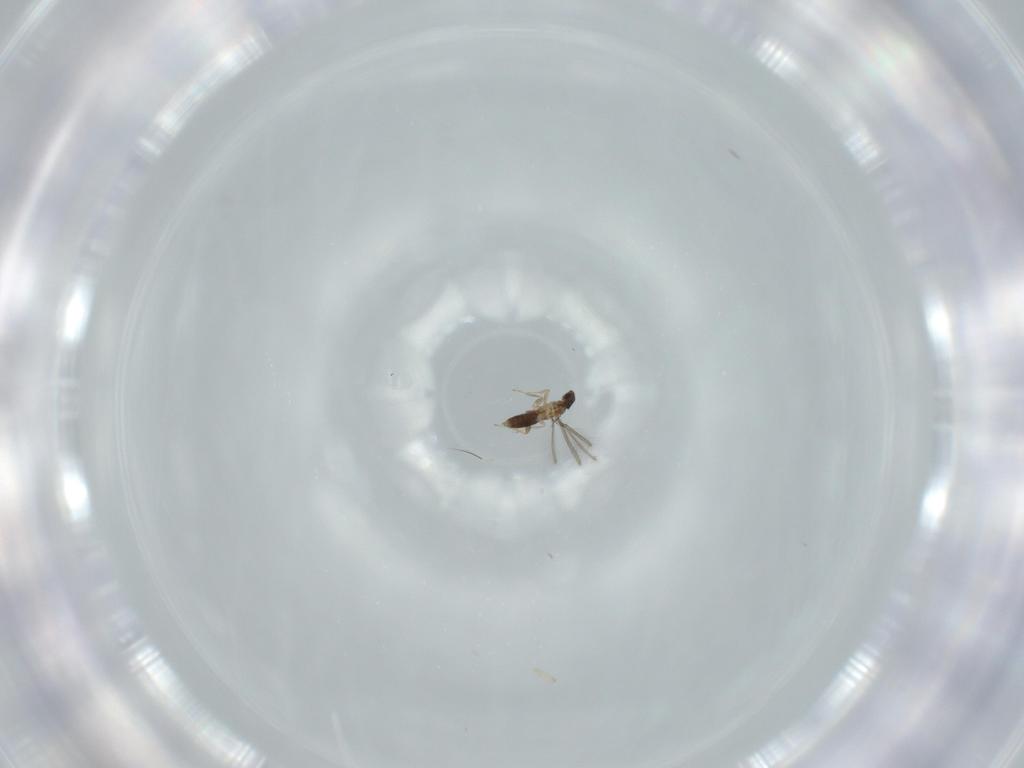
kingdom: Animalia
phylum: Arthropoda
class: Insecta
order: Hymenoptera
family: Mymaridae
